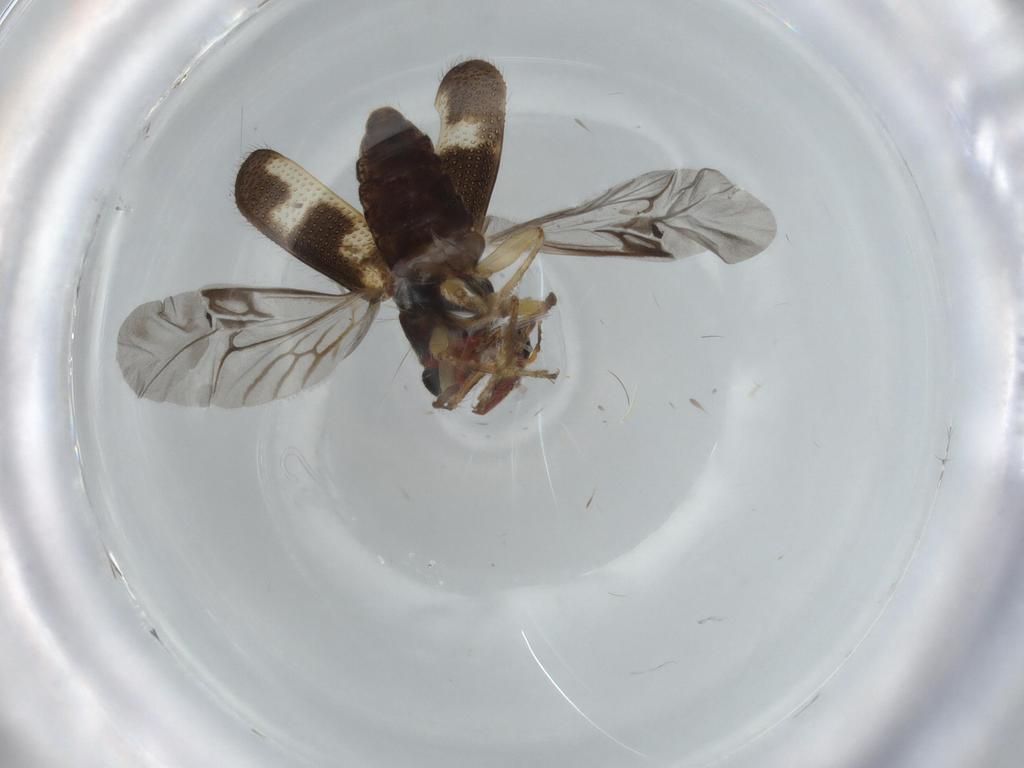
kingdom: Animalia
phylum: Arthropoda
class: Insecta
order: Coleoptera
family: Cleridae
